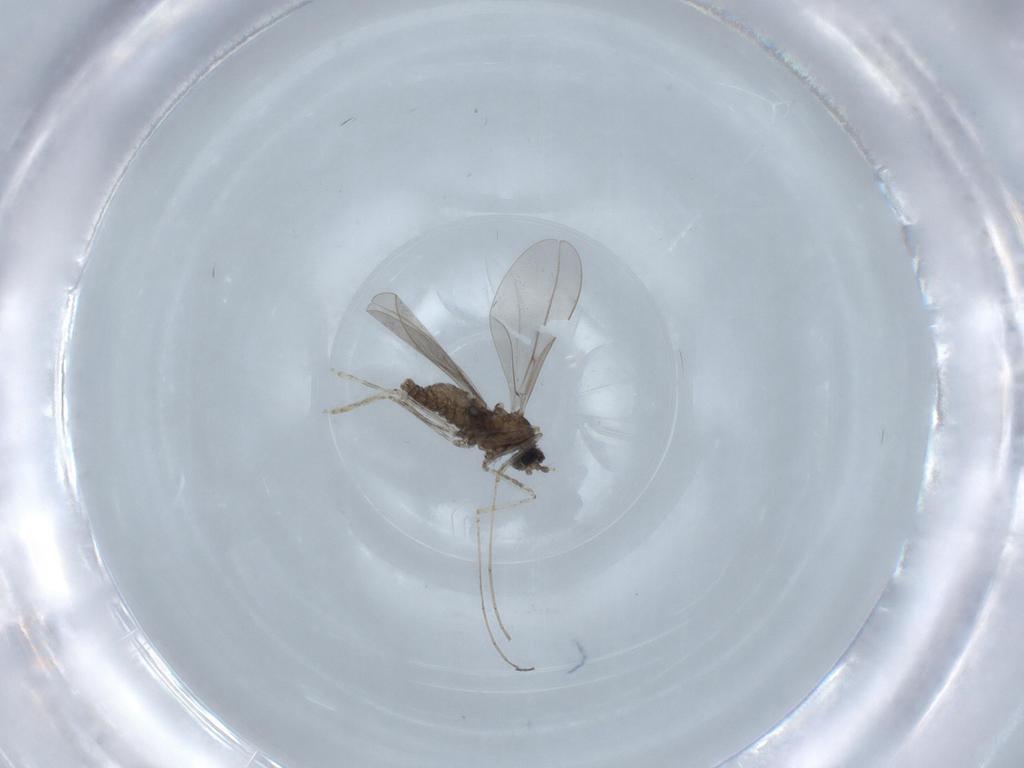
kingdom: Animalia
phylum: Arthropoda
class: Insecta
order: Diptera
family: Cecidomyiidae
